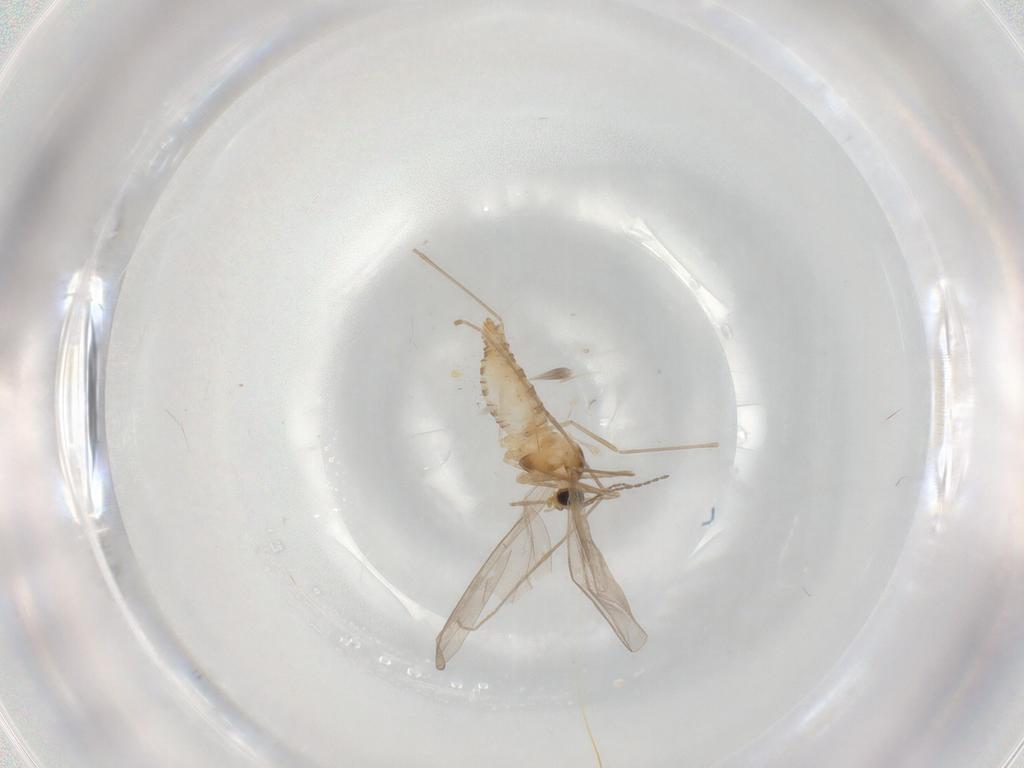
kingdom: Animalia
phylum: Arthropoda
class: Insecta
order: Diptera
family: Cecidomyiidae
